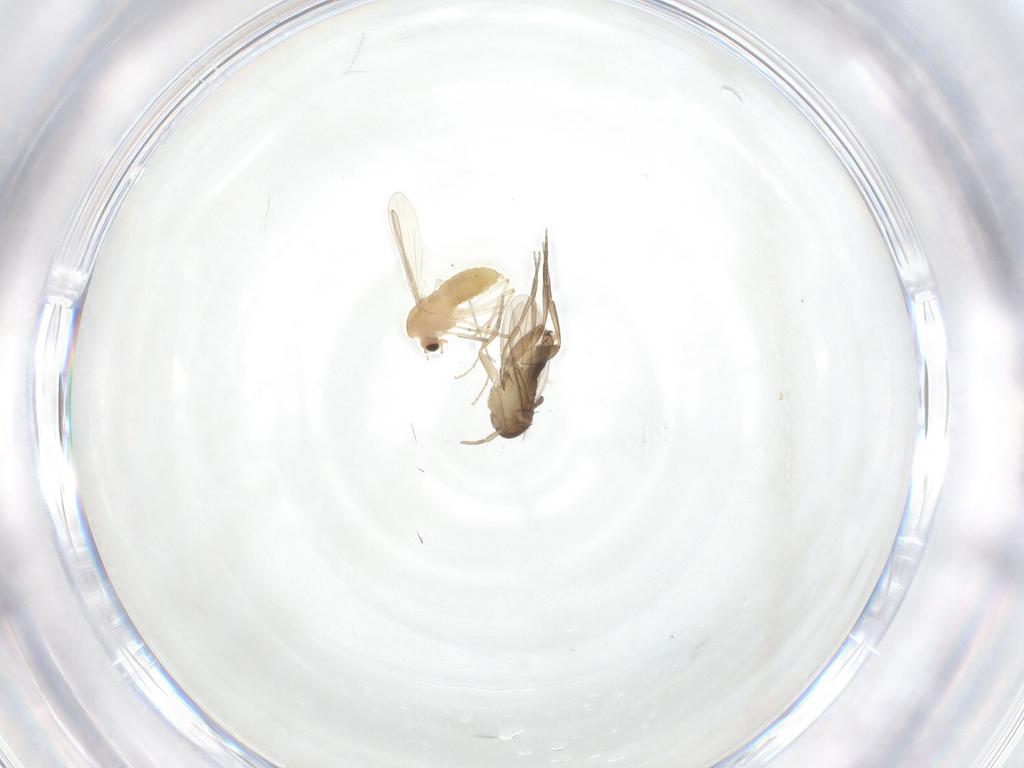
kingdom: Animalia
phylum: Arthropoda
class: Insecta
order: Diptera
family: Phoridae
